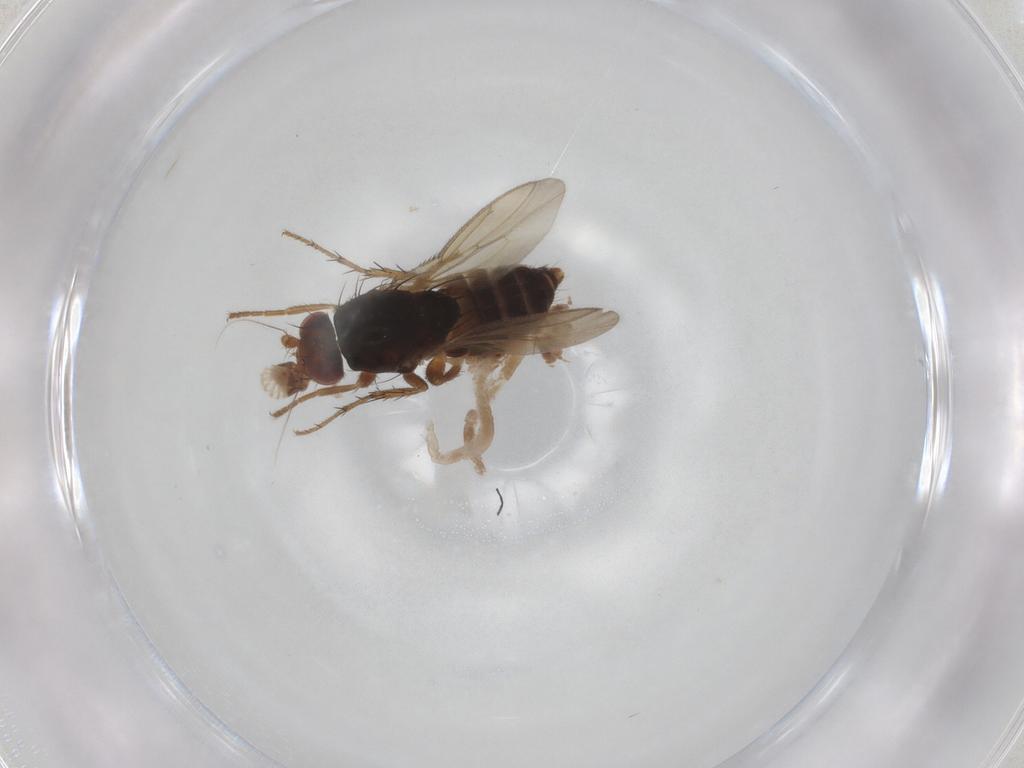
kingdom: Animalia
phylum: Arthropoda
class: Insecta
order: Diptera
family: Sphaeroceridae
